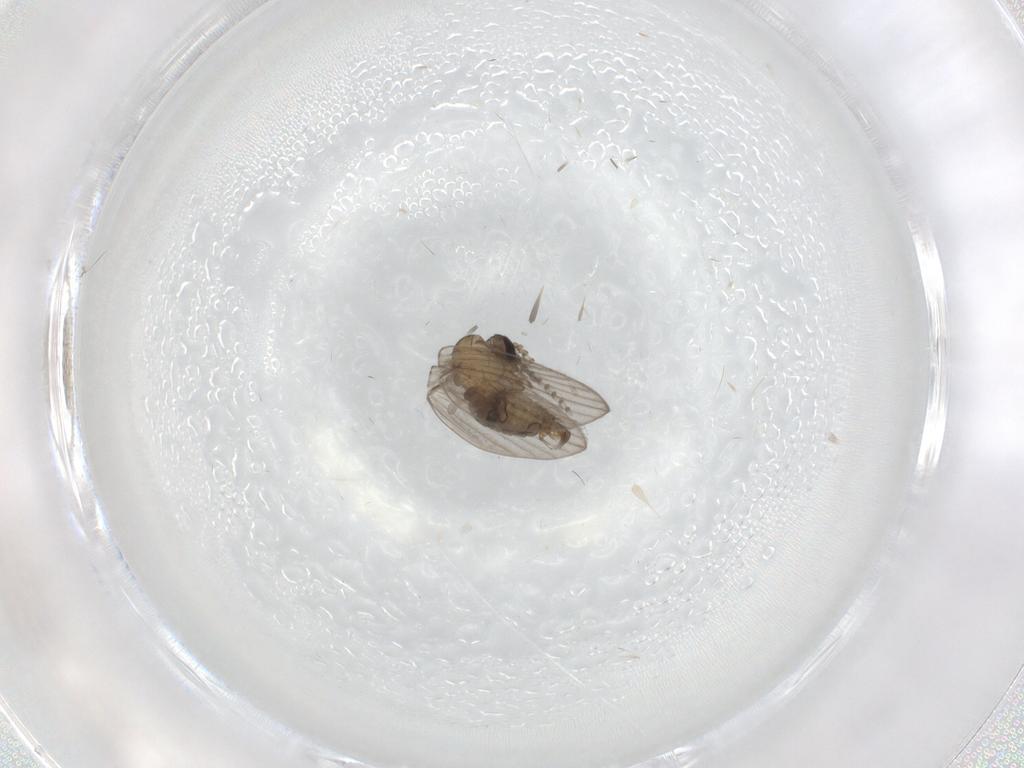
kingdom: Animalia
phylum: Arthropoda
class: Insecta
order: Diptera
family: Psychodidae
